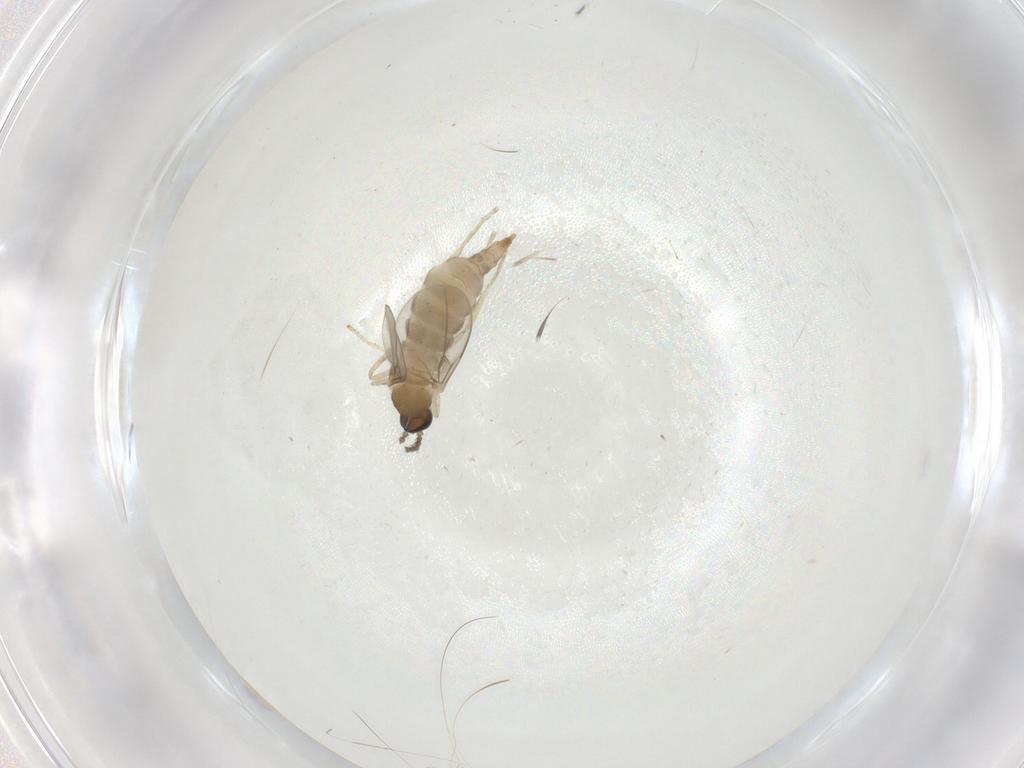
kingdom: Animalia
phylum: Arthropoda
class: Insecta
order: Diptera
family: Cecidomyiidae
